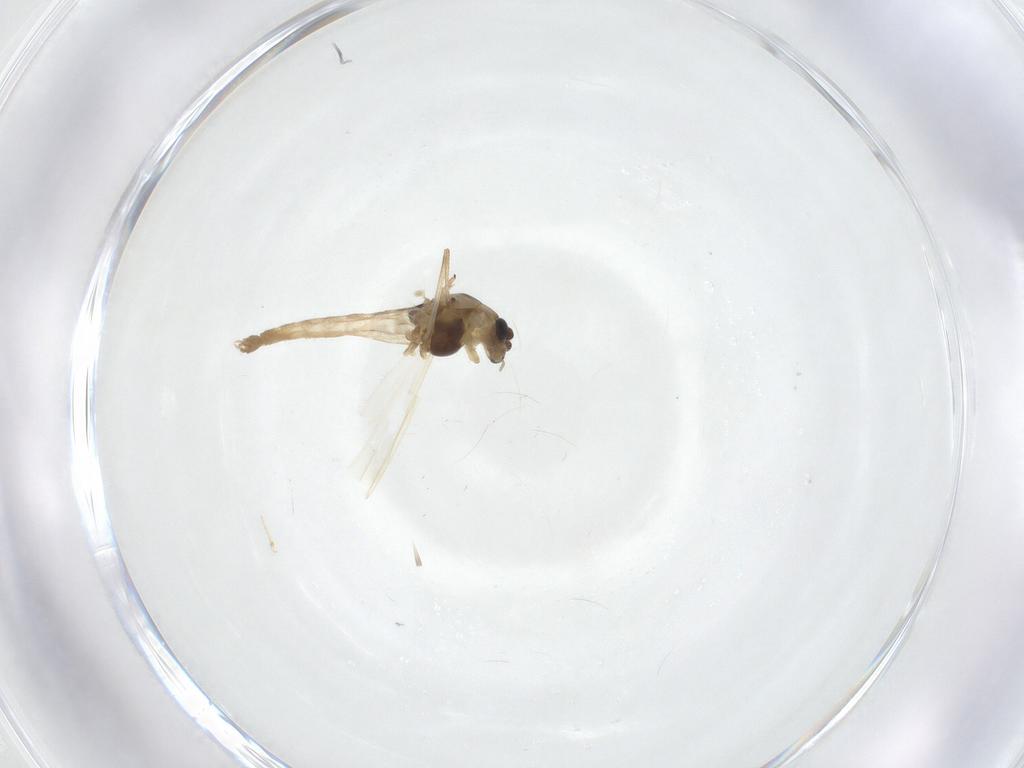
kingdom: Animalia
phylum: Arthropoda
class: Insecta
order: Diptera
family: Chironomidae
